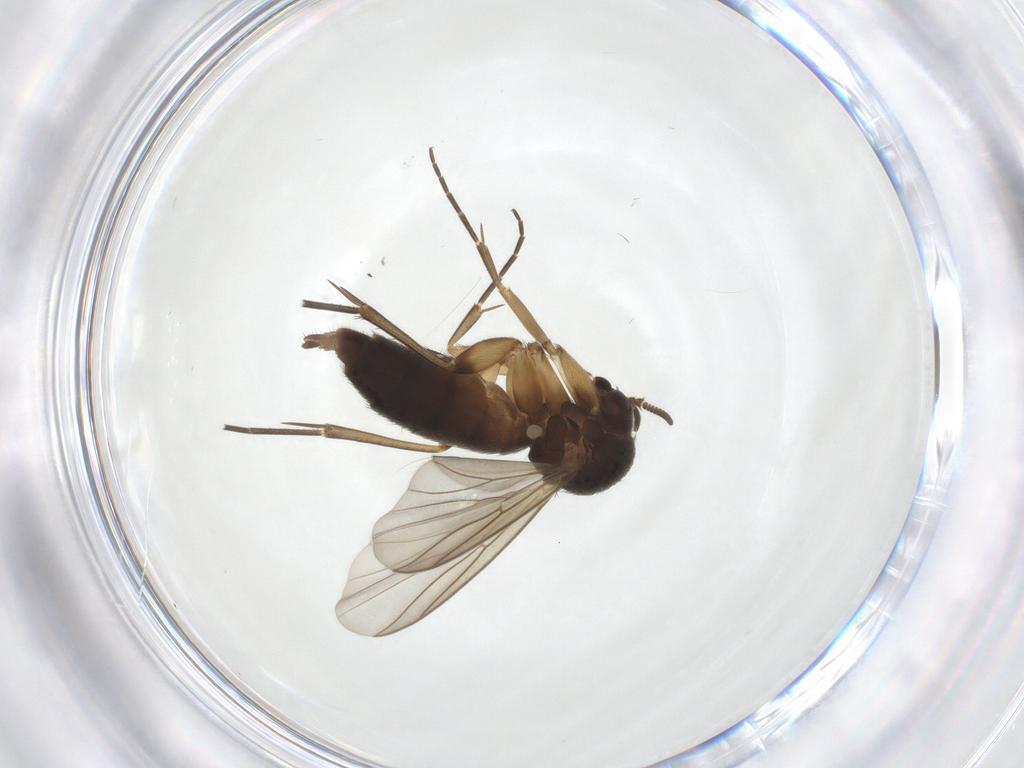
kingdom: Animalia
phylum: Arthropoda
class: Insecta
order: Diptera
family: Mycetophilidae
